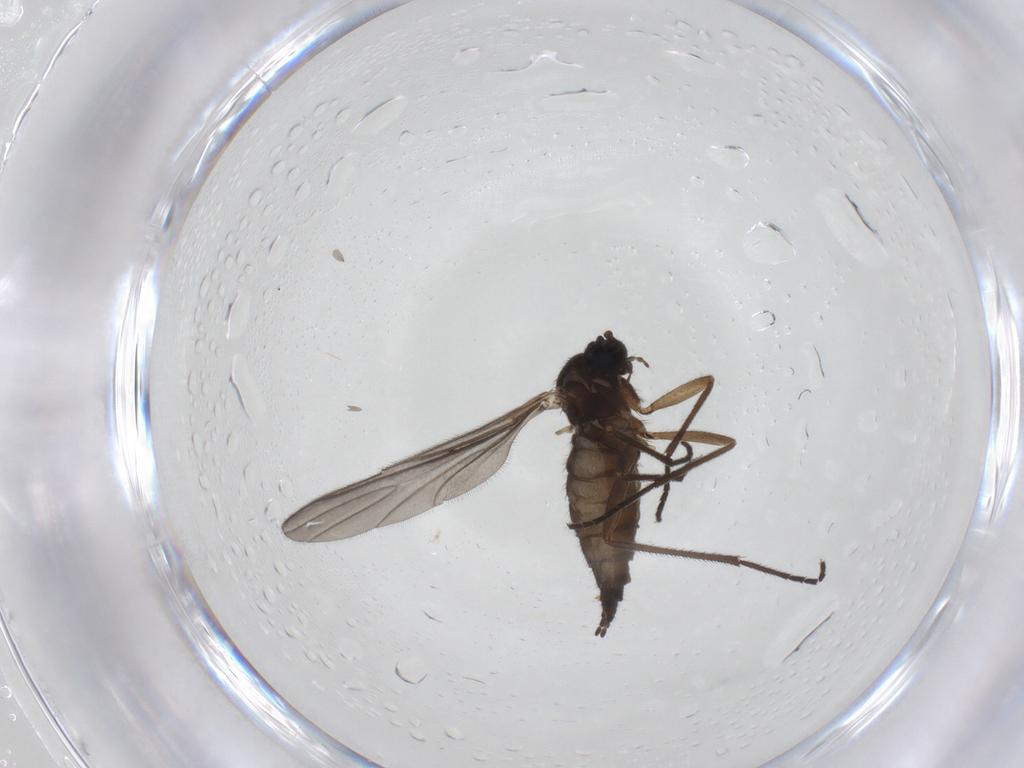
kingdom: Animalia
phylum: Arthropoda
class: Insecta
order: Diptera
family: Sciaridae
